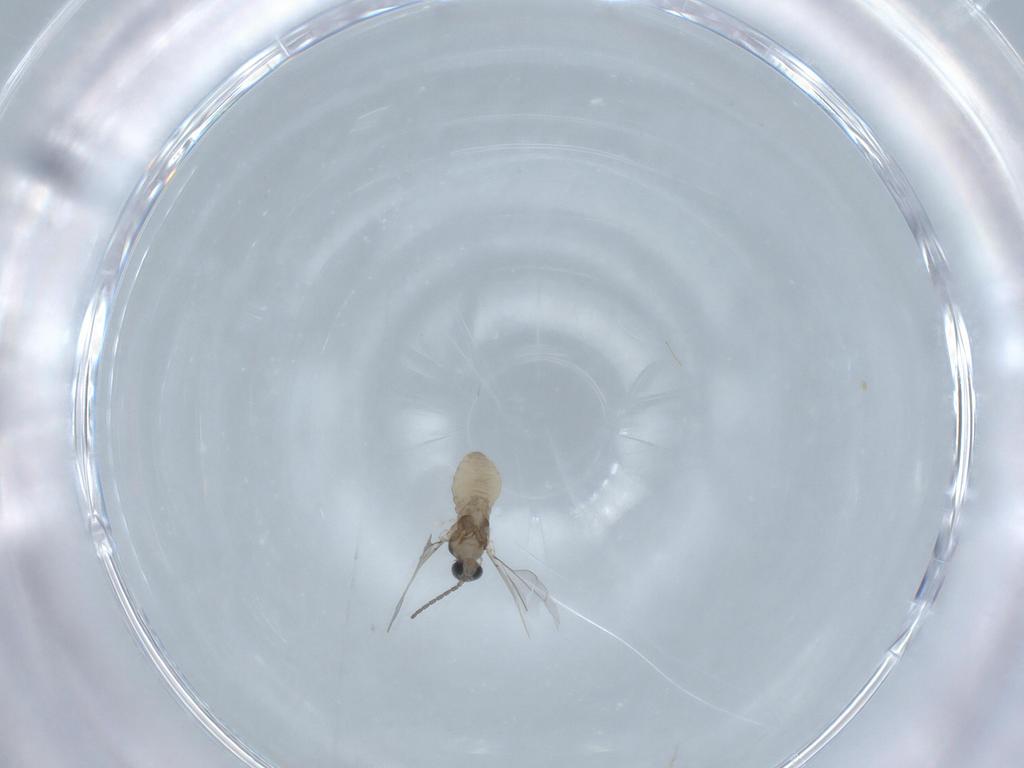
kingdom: Animalia
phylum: Arthropoda
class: Insecta
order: Diptera
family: Cecidomyiidae
